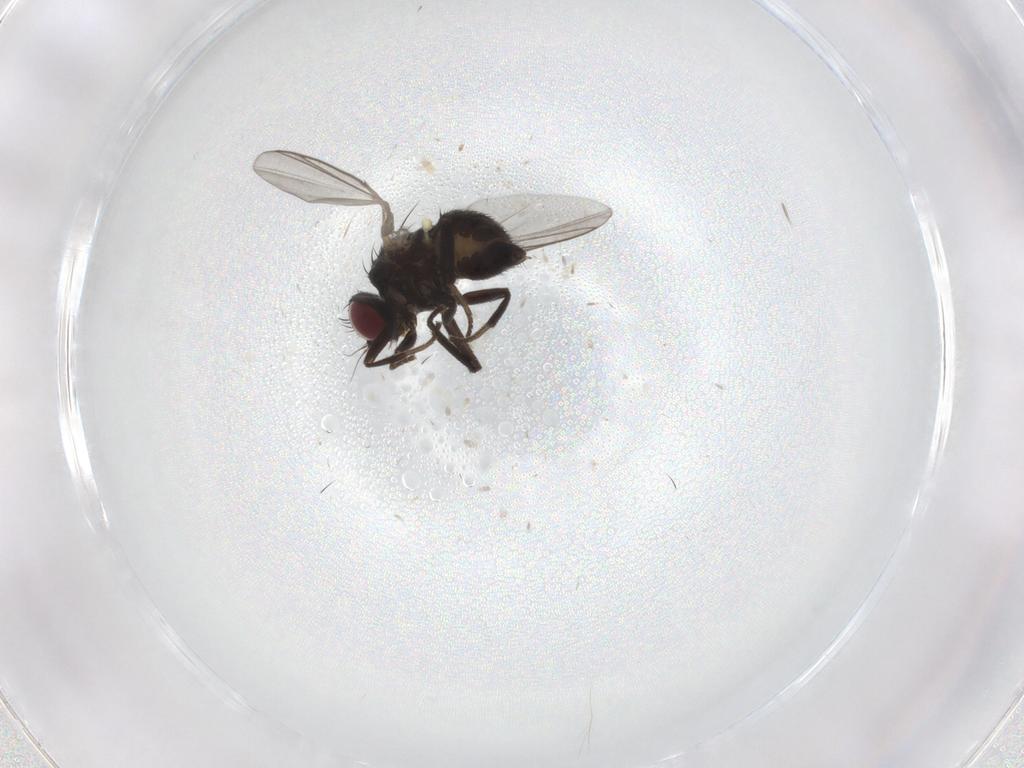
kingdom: Animalia
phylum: Arthropoda
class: Insecta
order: Diptera
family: Agromyzidae
